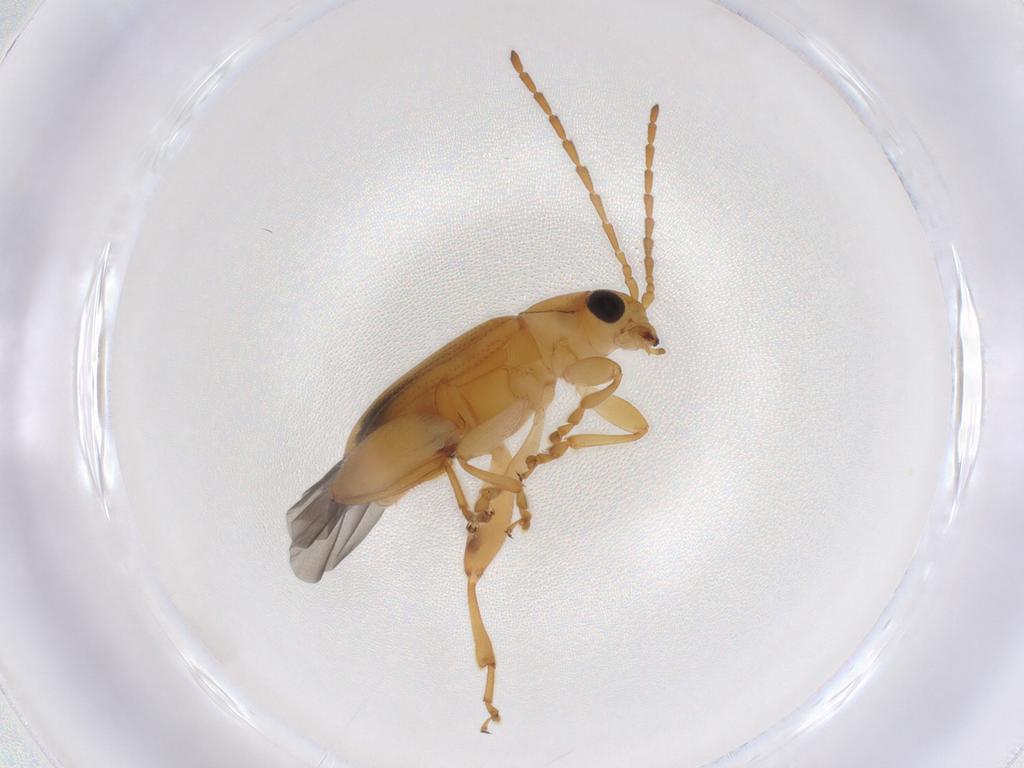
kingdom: Animalia
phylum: Arthropoda
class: Insecta
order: Coleoptera
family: Chrysomelidae
